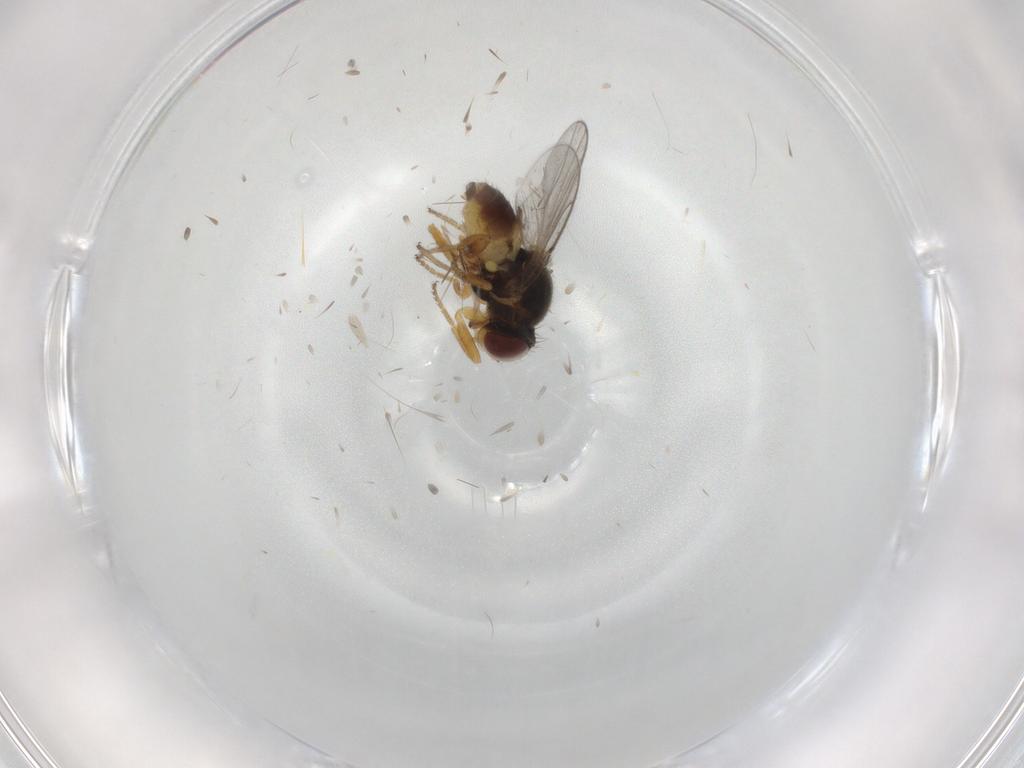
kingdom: Animalia
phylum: Arthropoda
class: Insecta
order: Diptera
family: Chloropidae
